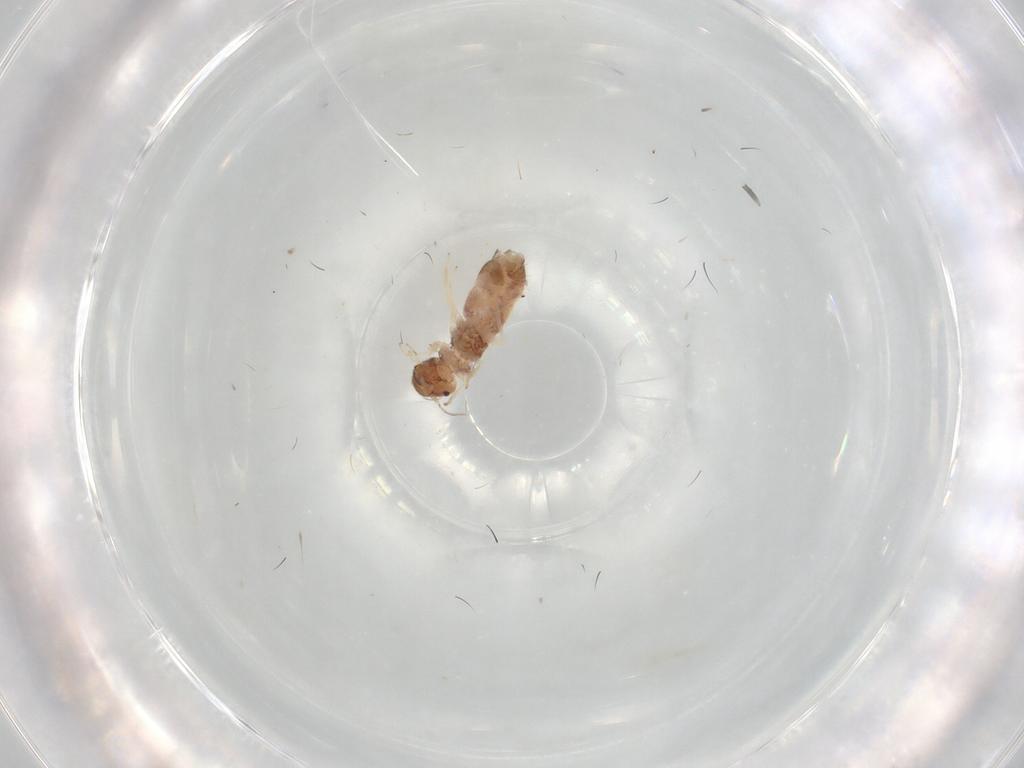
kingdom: Animalia
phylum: Arthropoda
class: Insecta
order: Psocodea
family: Archipsocidae
